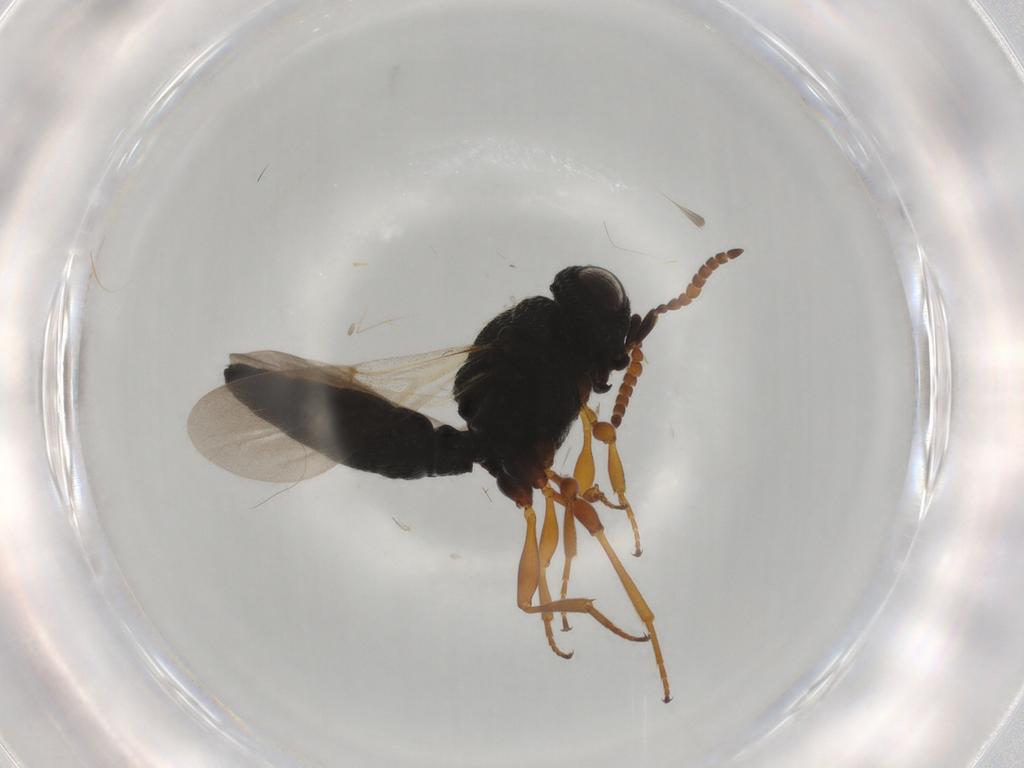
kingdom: Animalia
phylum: Arthropoda
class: Insecta
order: Hymenoptera
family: Scelionidae
